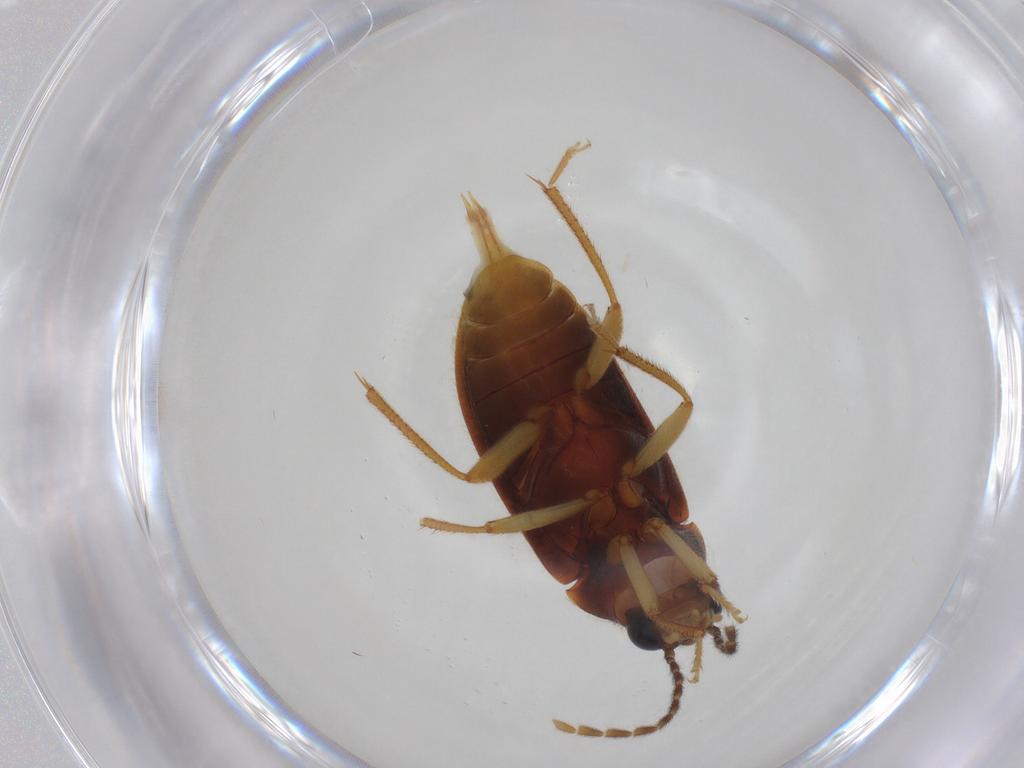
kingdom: Animalia
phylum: Arthropoda
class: Insecta
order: Coleoptera
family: Ptilodactylidae
